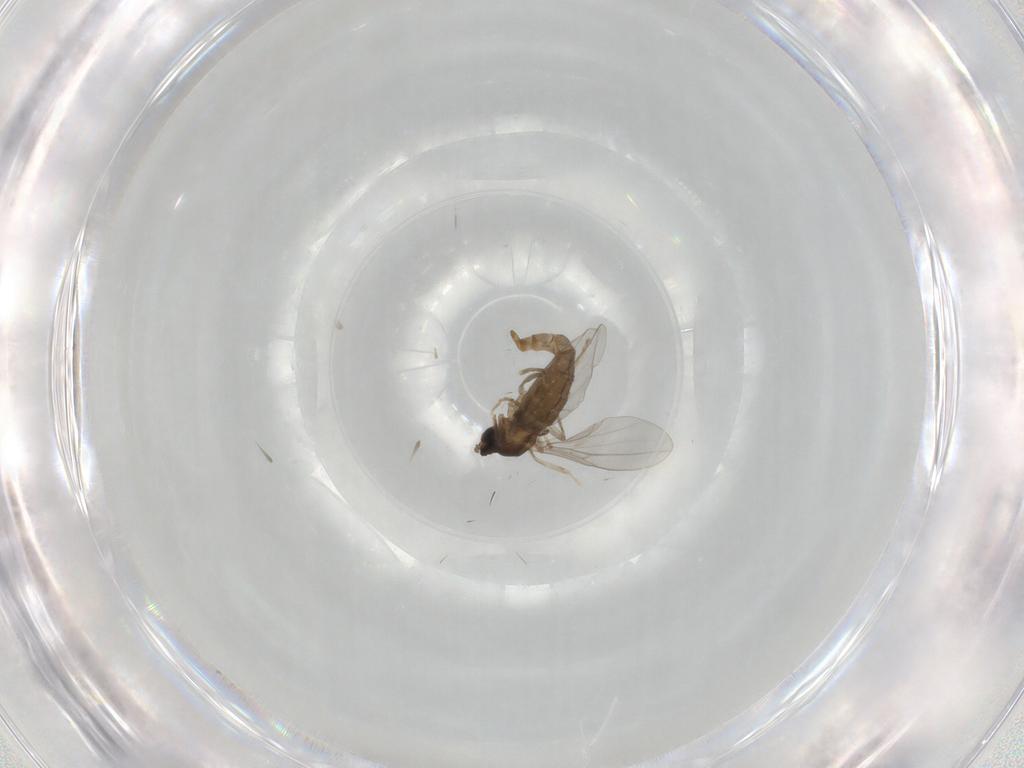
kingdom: Animalia
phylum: Arthropoda
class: Insecta
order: Diptera
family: Cecidomyiidae
